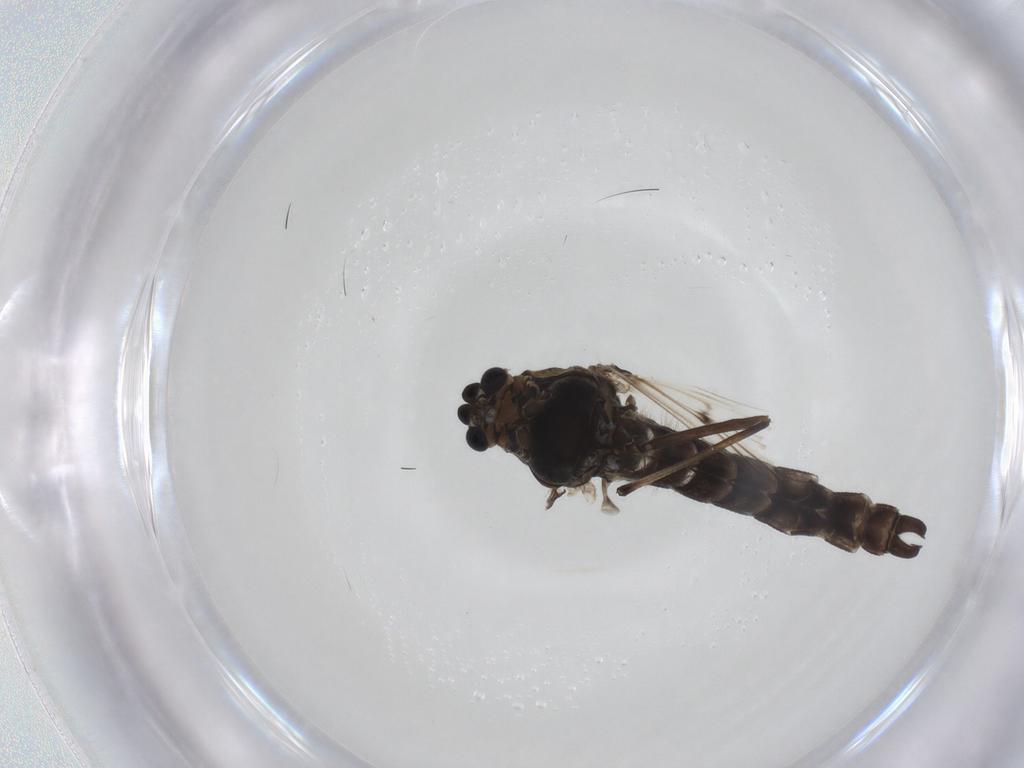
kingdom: Animalia
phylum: Arthropoda
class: Insecta
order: Diptera
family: Chironomidae
